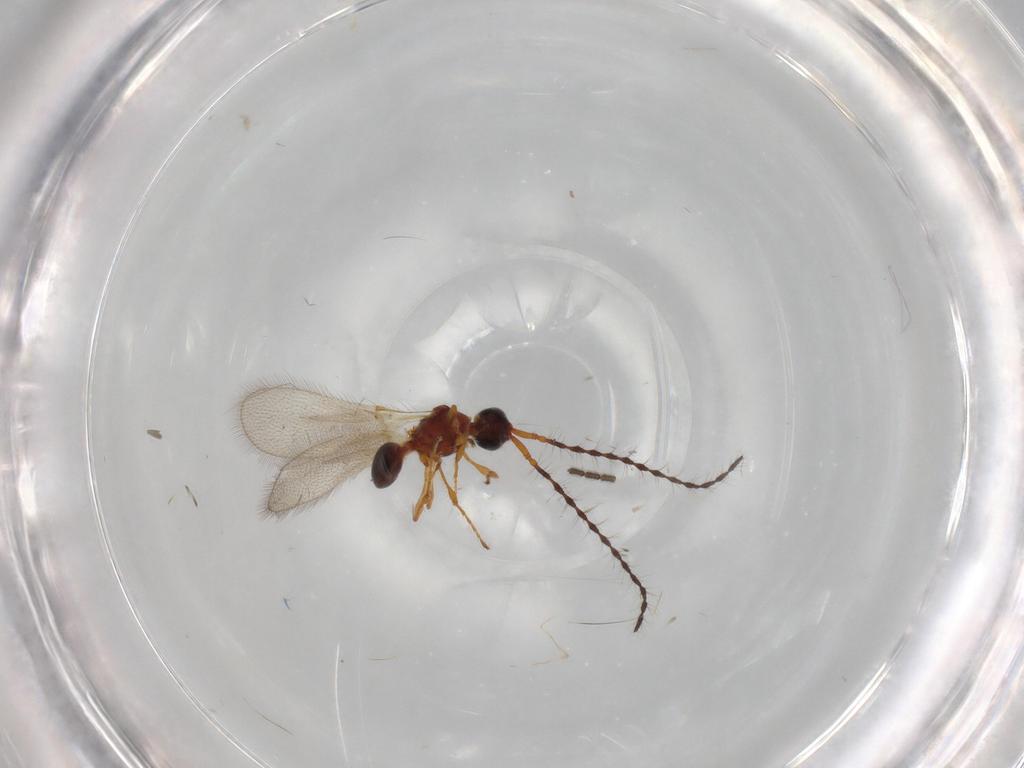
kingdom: Animalia
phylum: Arthropoda
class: Insecta
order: Hymenoptera
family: Diapriidae
